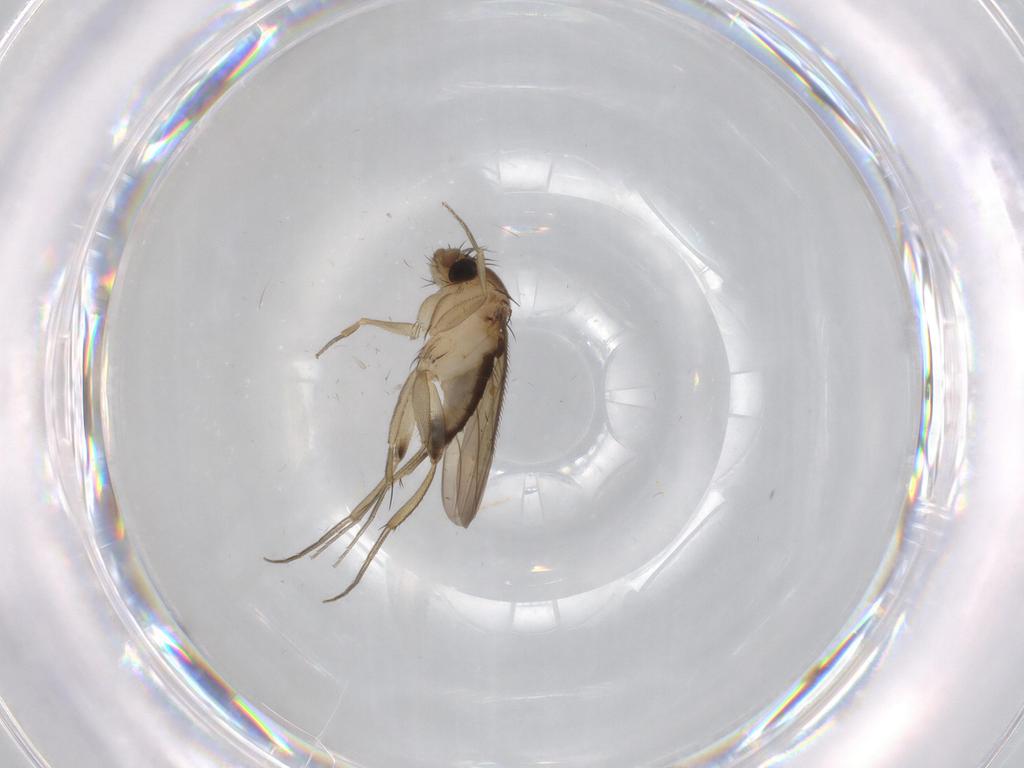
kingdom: Animalia
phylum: Arthropoda
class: Insecta
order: Diptera
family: Phoridae
